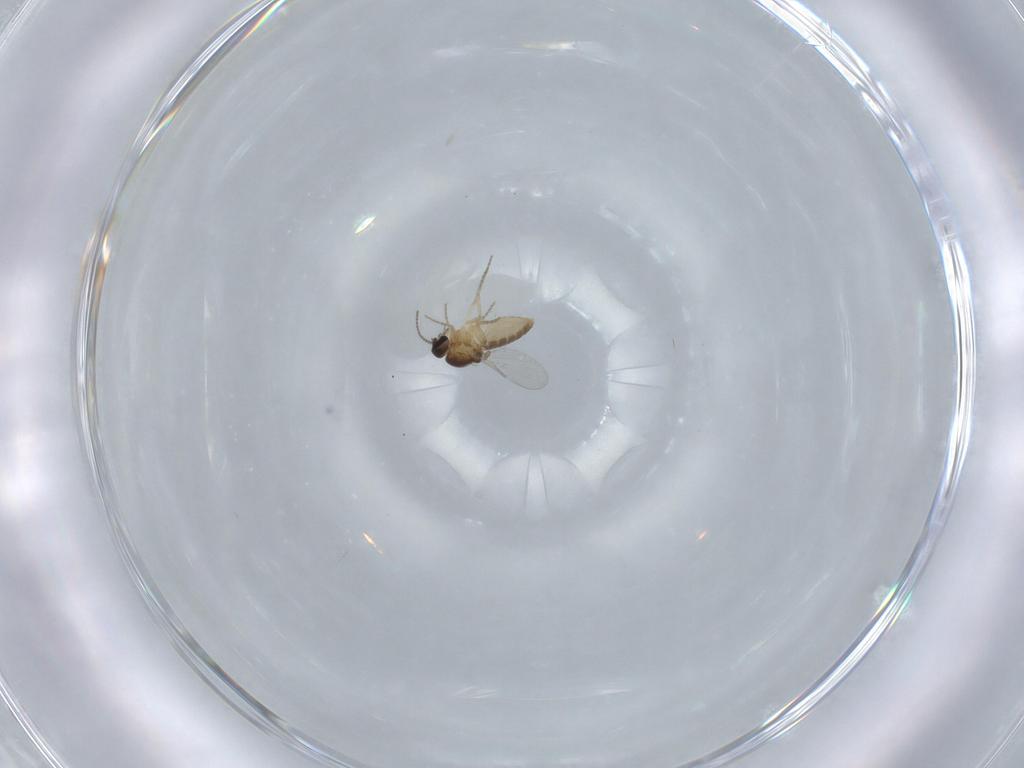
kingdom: Animalia
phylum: Arthropoda
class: Insecta
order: Diptera
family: Ceratopogonidae
